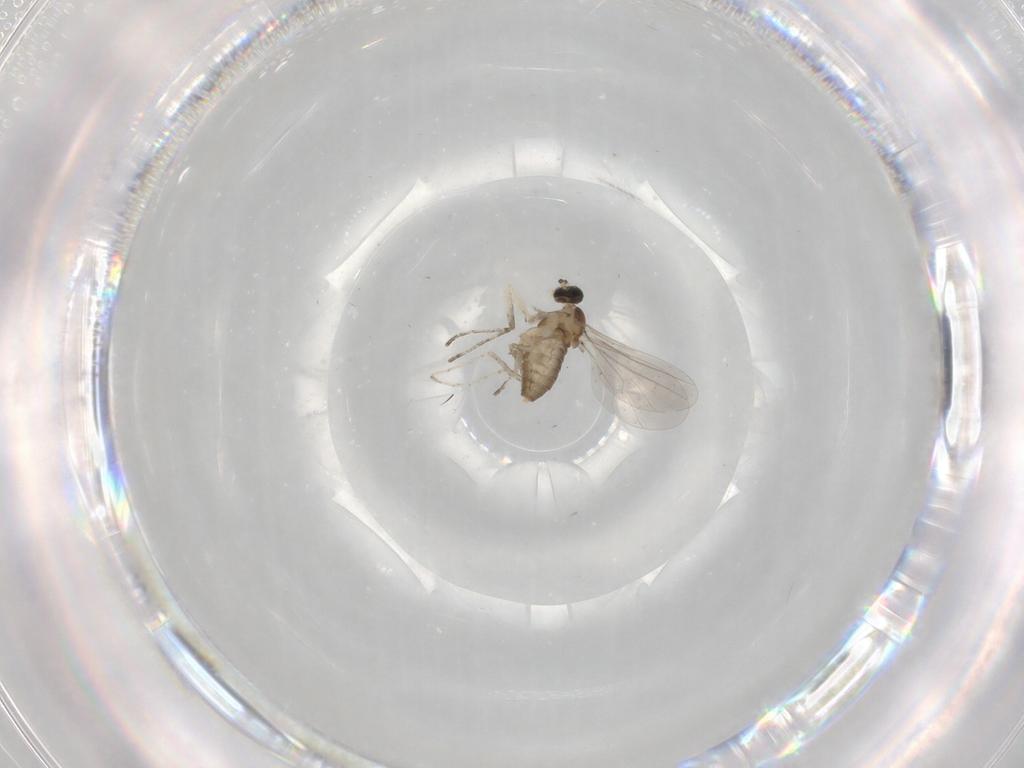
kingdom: Animalia
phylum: Arthropoda
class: Insecta
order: Diptera
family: Cecidomyiidae
